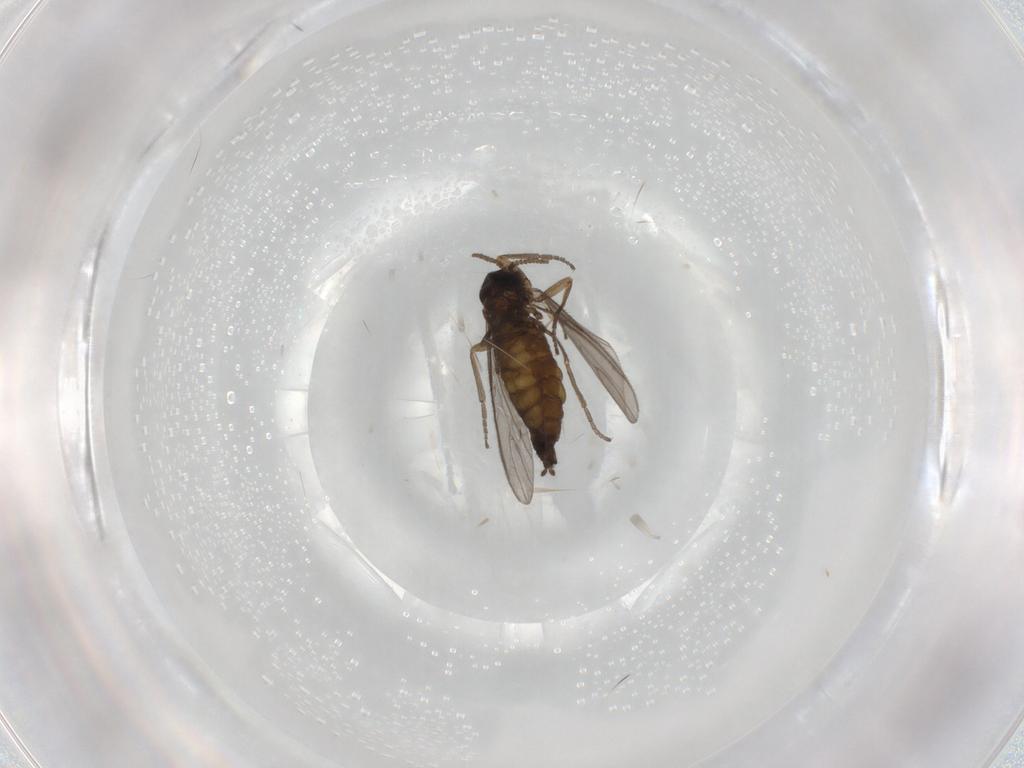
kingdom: Animalia
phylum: Arthropoda
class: Insecta
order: Diptera
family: Sciaridae
